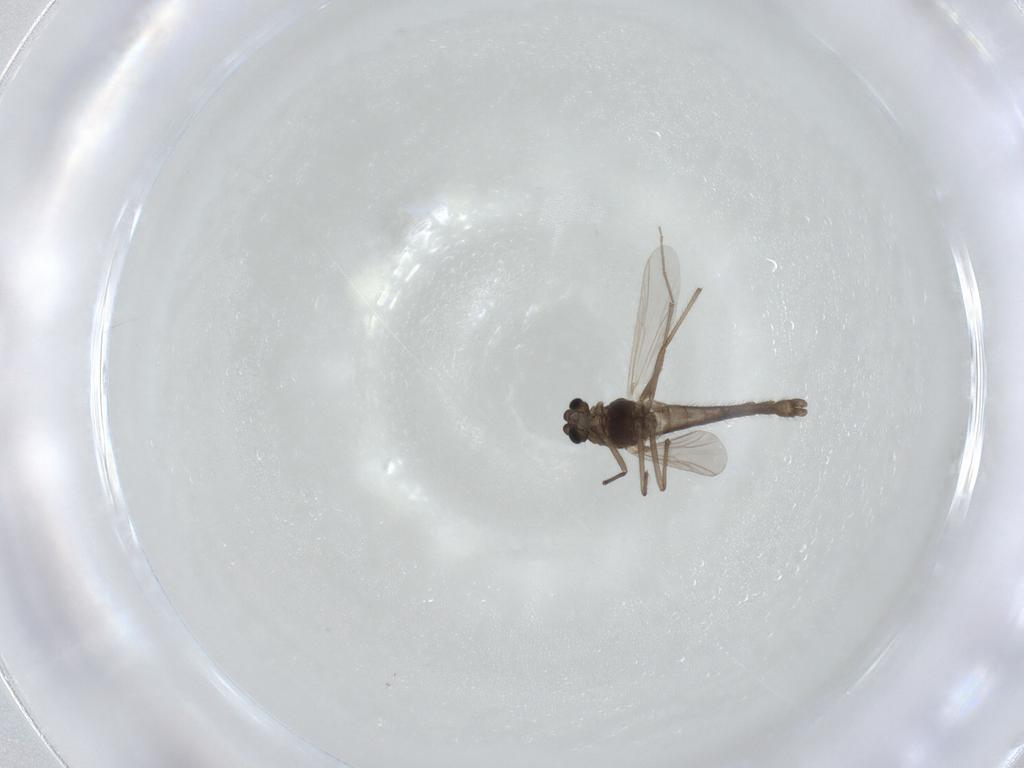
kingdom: Animalia
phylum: Arthropoda
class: Insecta
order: Diptera
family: Chironomidae
